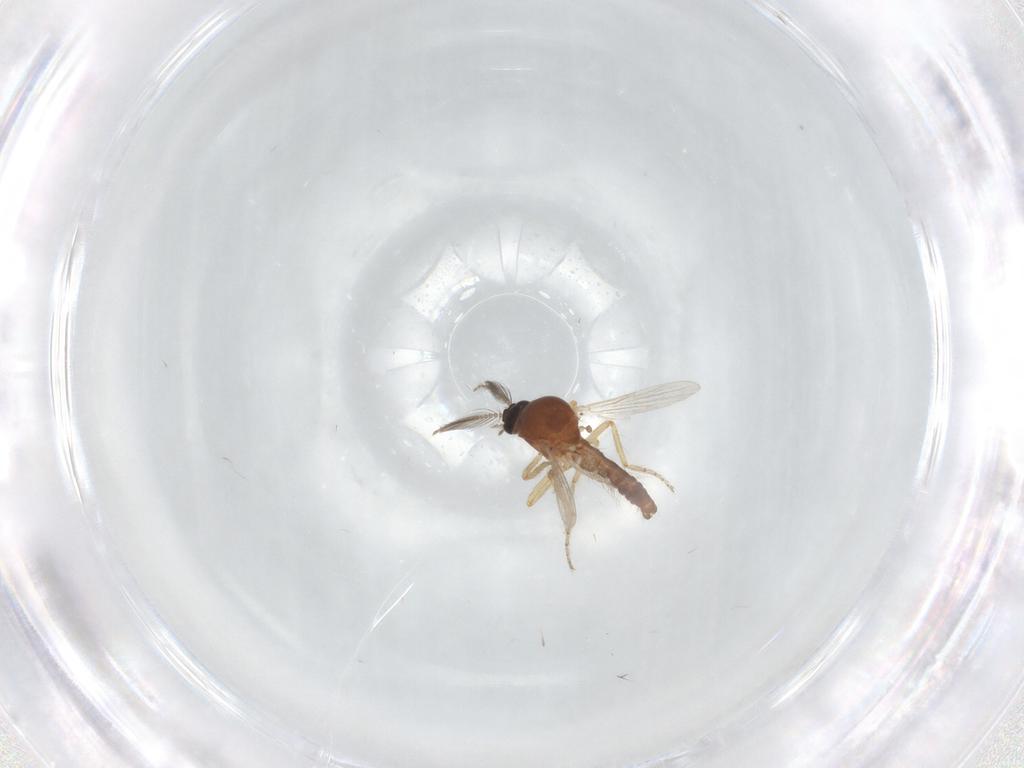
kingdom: Animalia
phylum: Arthropoda
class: Insecta
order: Diptera
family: Ceratopogonidae
